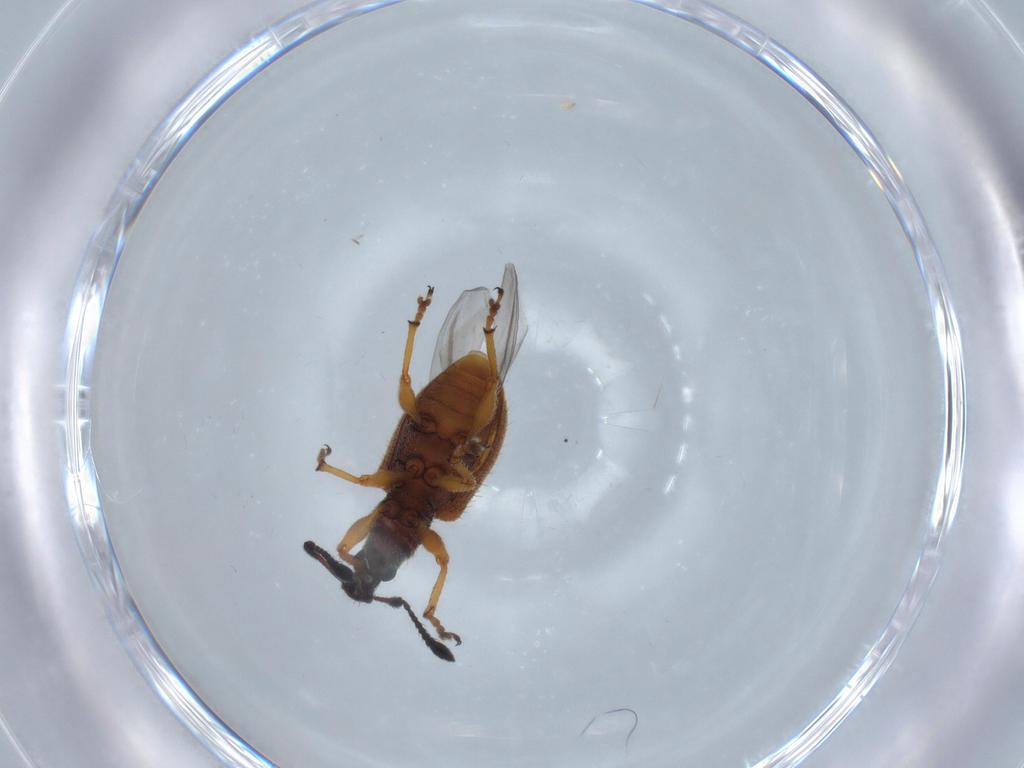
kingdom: Animalia
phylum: Arthropoda
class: Insecta
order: Coleoptera
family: Curculionidae
